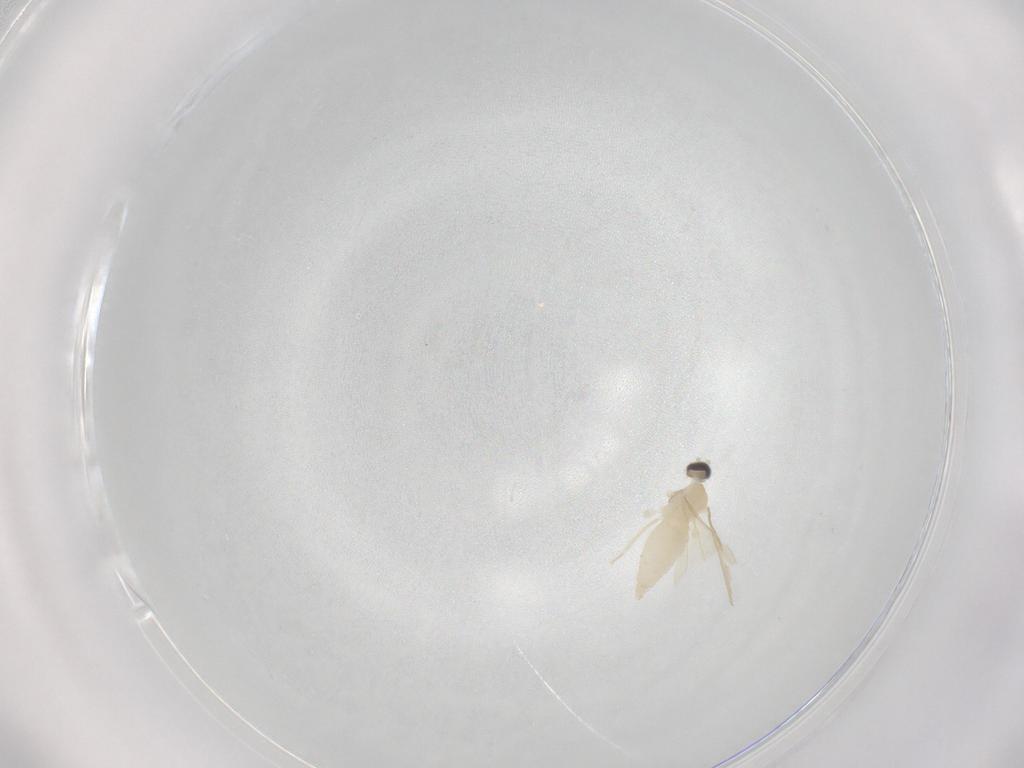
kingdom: Animalia
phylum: Arthropoda
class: Insecta
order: Diptera
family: Cecidomyiidae
